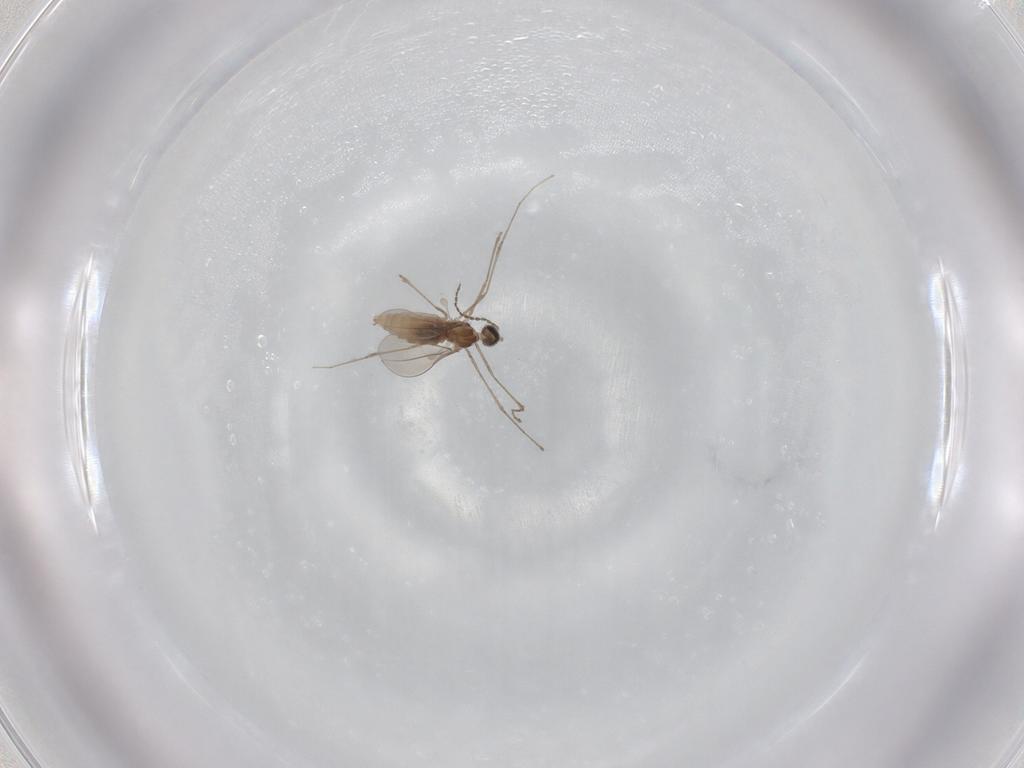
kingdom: Animalia
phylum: Arthropoda
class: Insecta
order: Diptera
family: Cecidomyiidae
